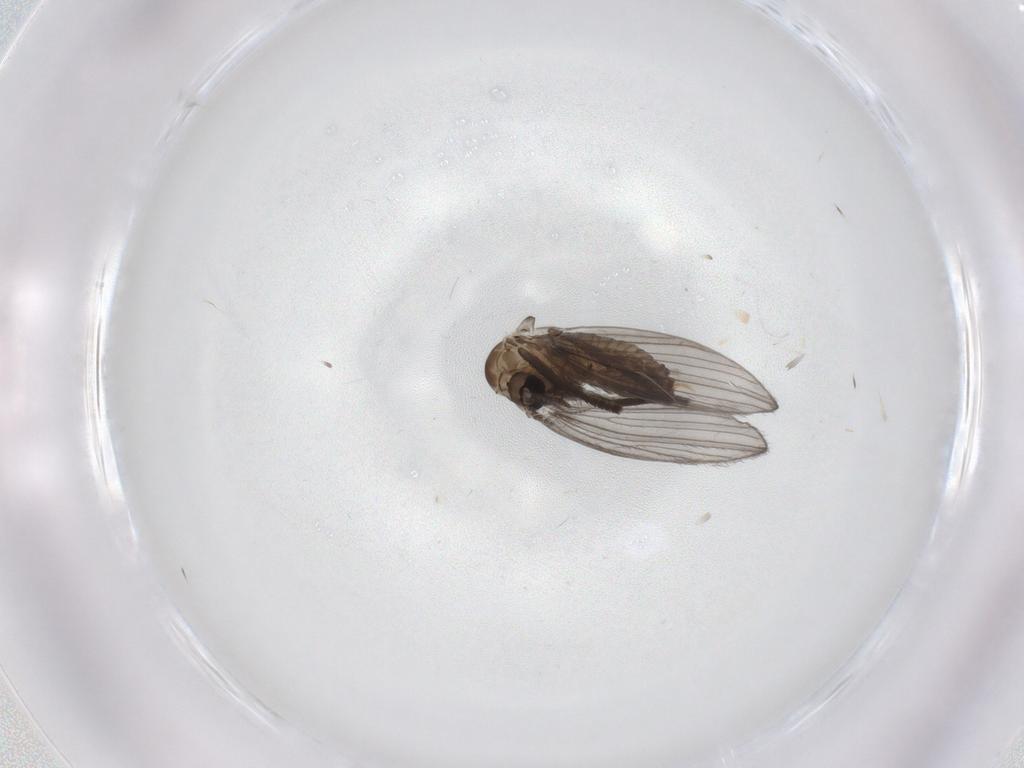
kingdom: Animalia
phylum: Arthropoda
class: Insecta
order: Diptera
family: Psychodidae
